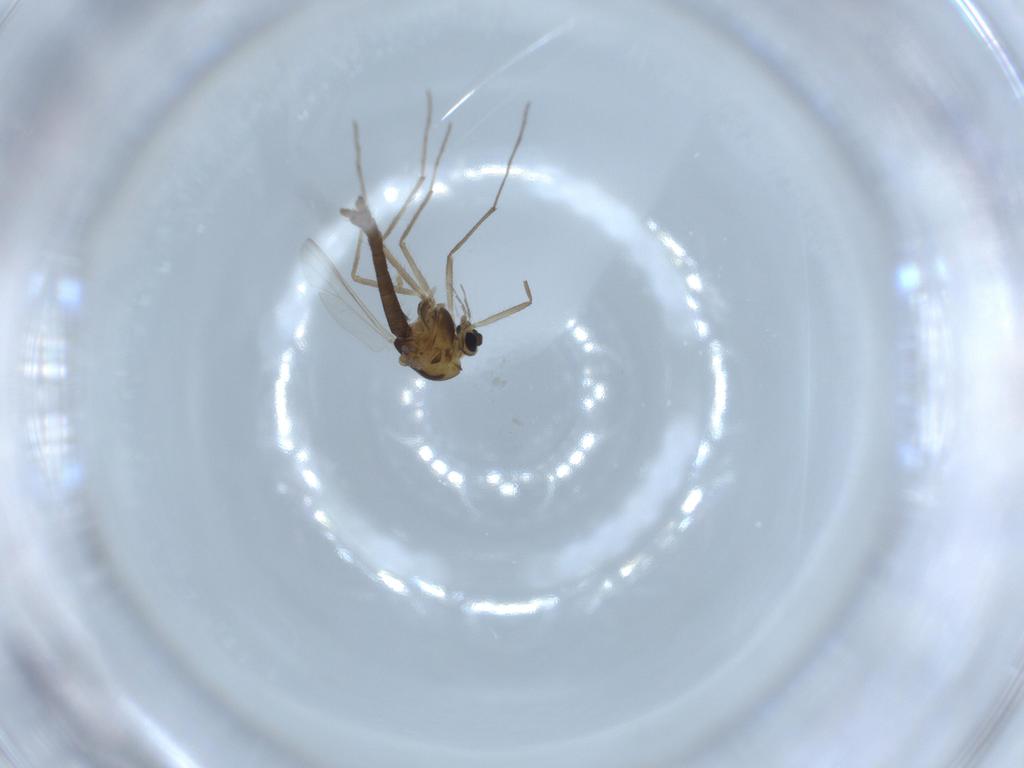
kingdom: Animalia
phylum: Arthropoda
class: Insecta
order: Diptera
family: Chironomidae
